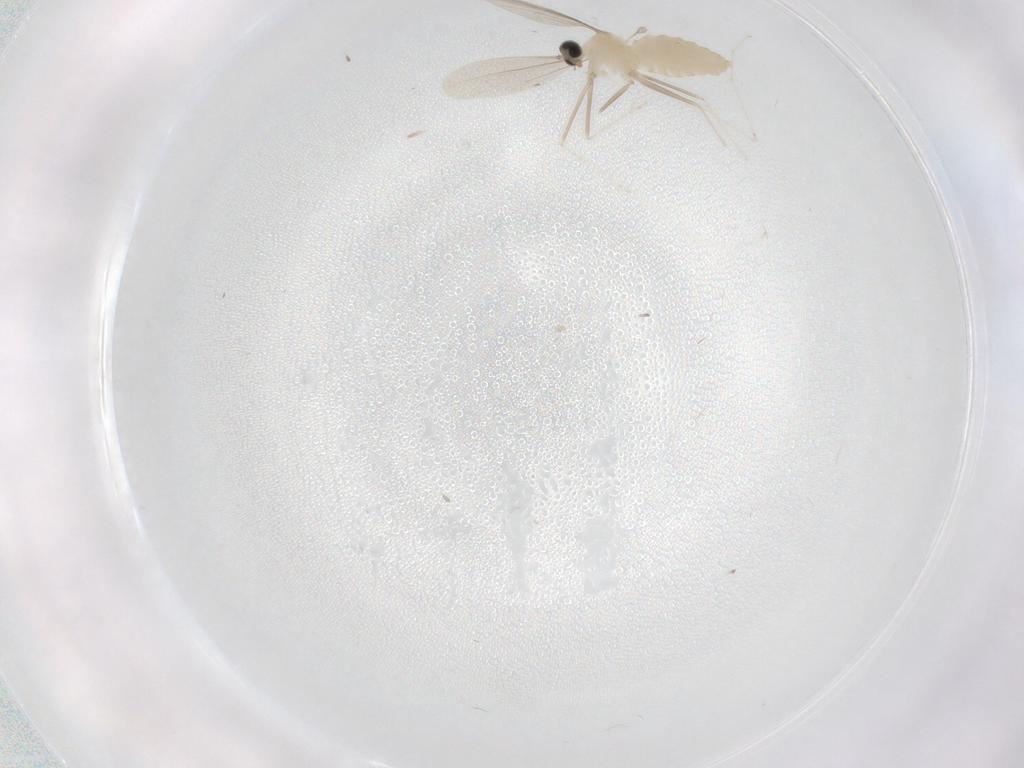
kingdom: Animalia
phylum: Arthropoda
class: Insecta
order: Diptera
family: Cecidomyiidae
